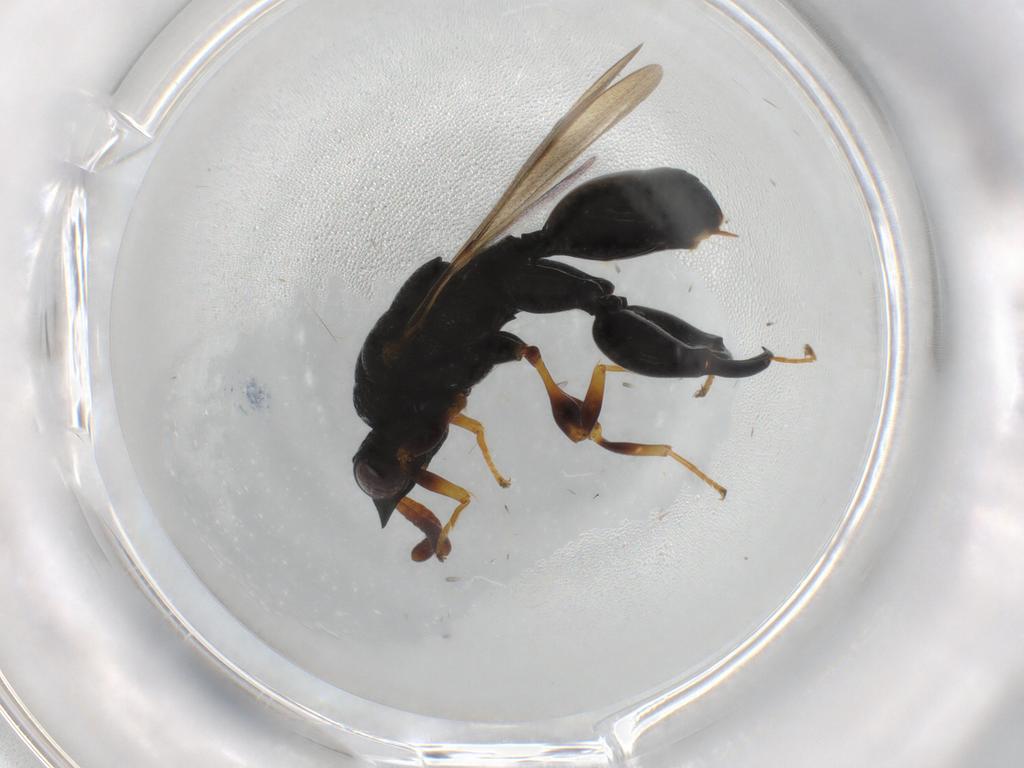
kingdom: Animalia
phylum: Arthropoda
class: Insecta
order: Hymenoptera
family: Chalcididae
